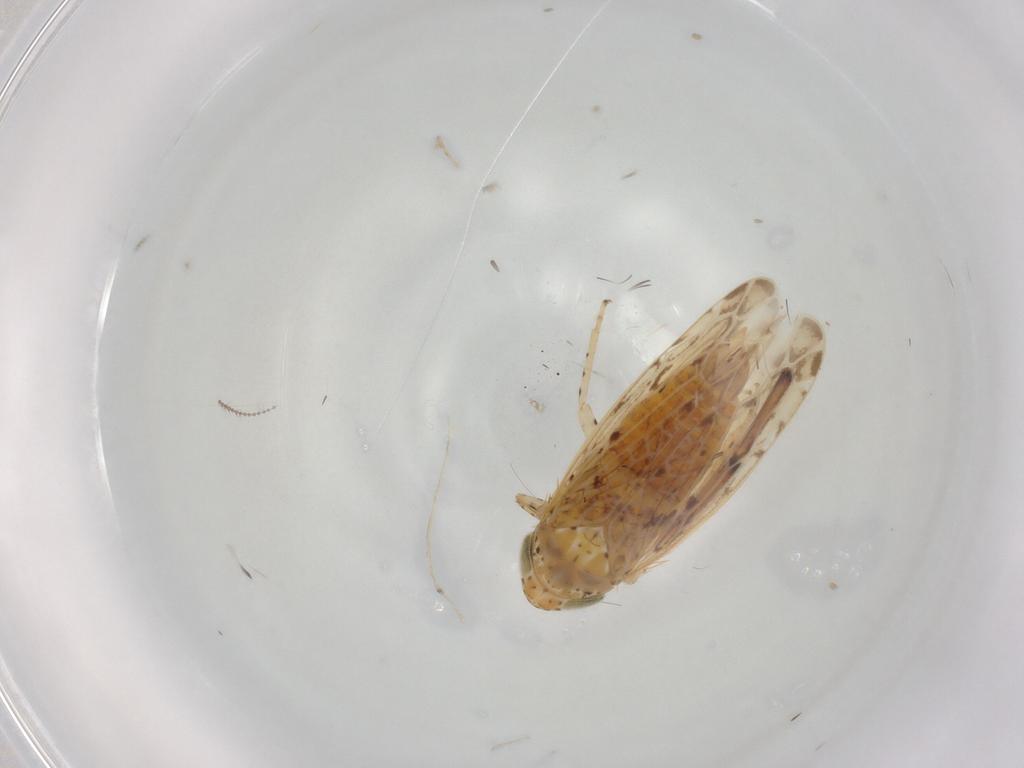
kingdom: Animalia
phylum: Arthropoda
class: Insecta
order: Hemiptera
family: Cicadellidae
